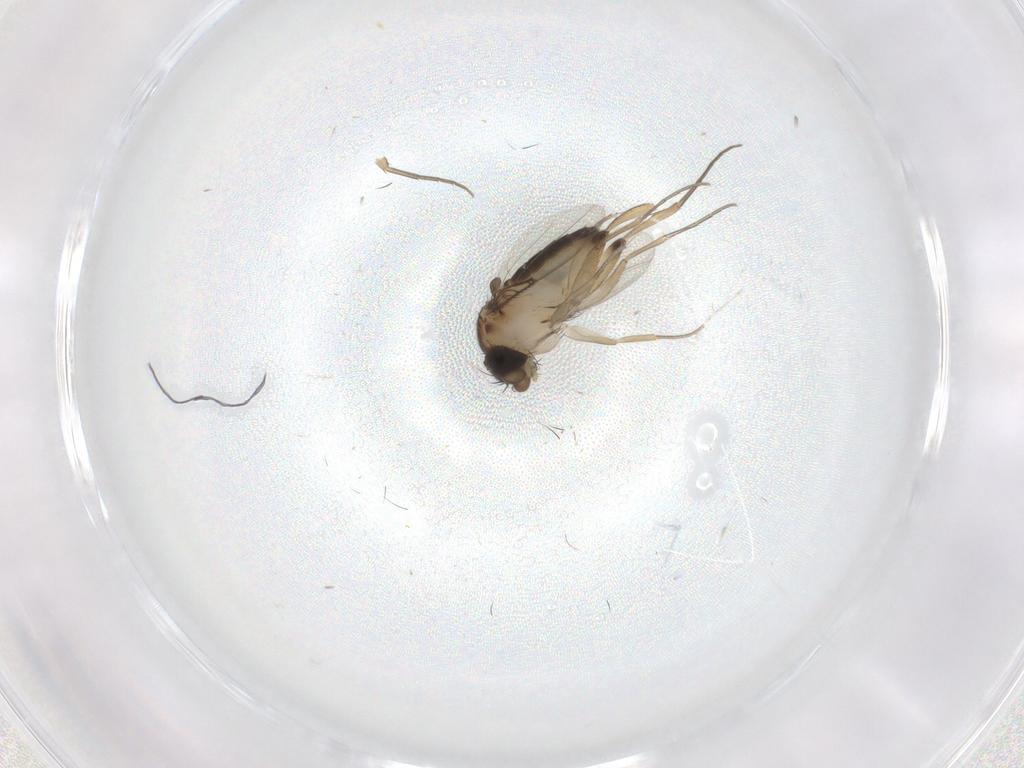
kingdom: Animalia
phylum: Arthropoda
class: Insecta
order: Diptera
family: Phoridae
